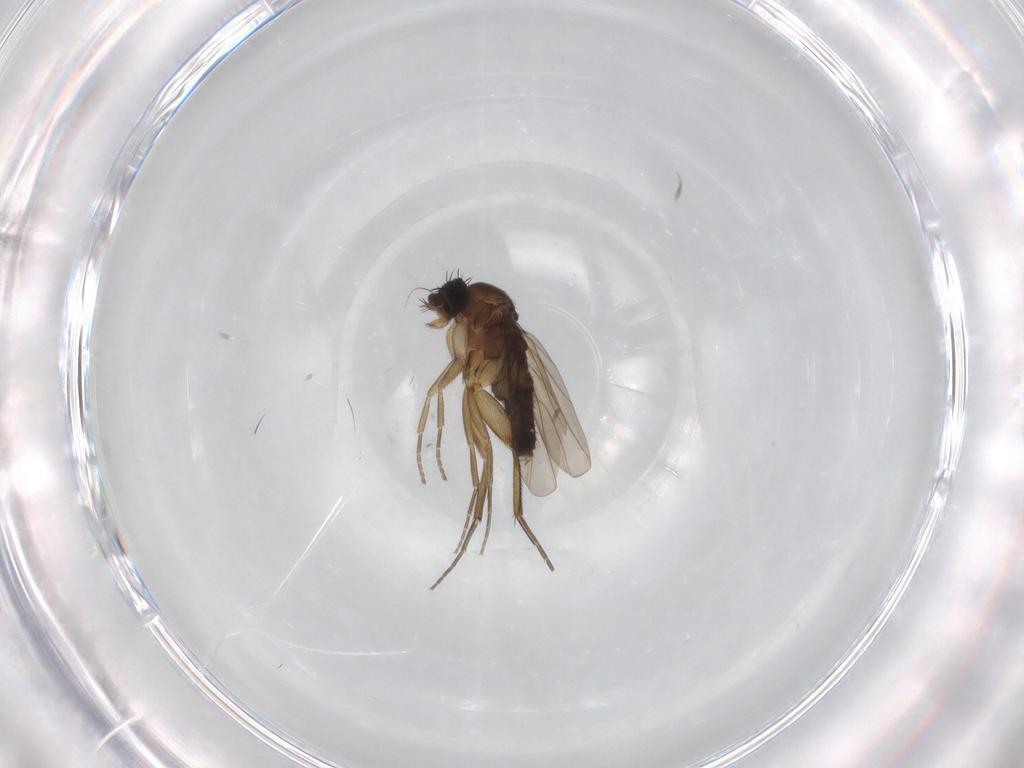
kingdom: Animalia
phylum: Arthropoda
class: Insecta
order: Diptera
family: Phoridae
